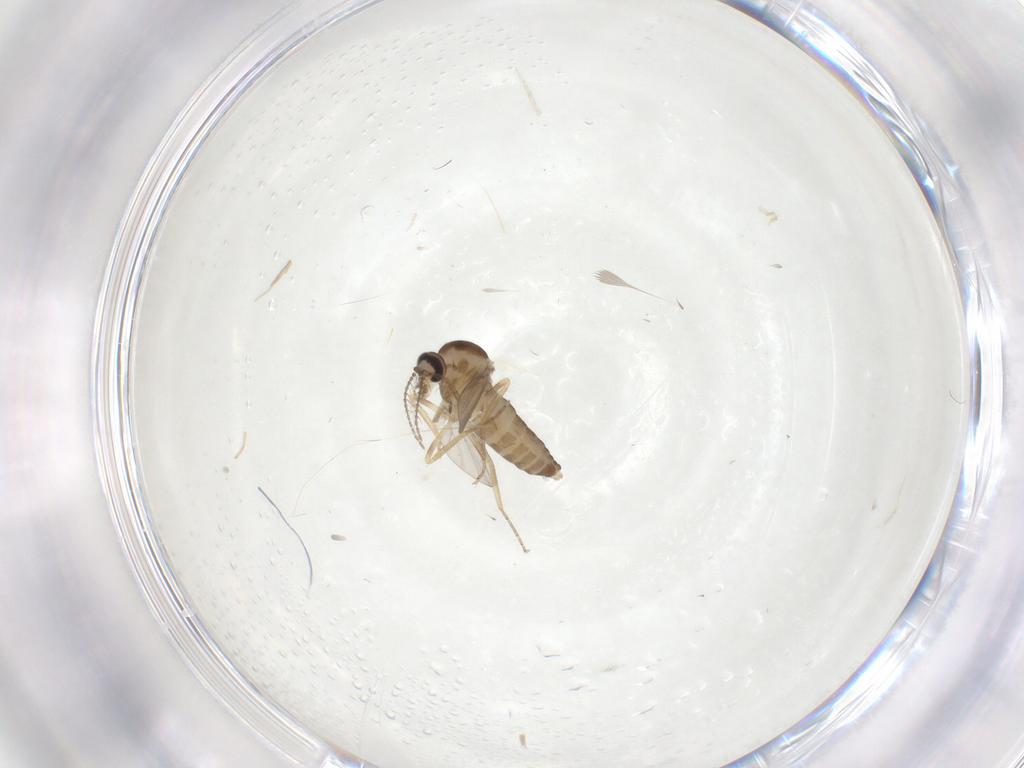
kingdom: Animalia
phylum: Arthropoda
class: Insecta
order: Diptera
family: Ceratopogonidae
